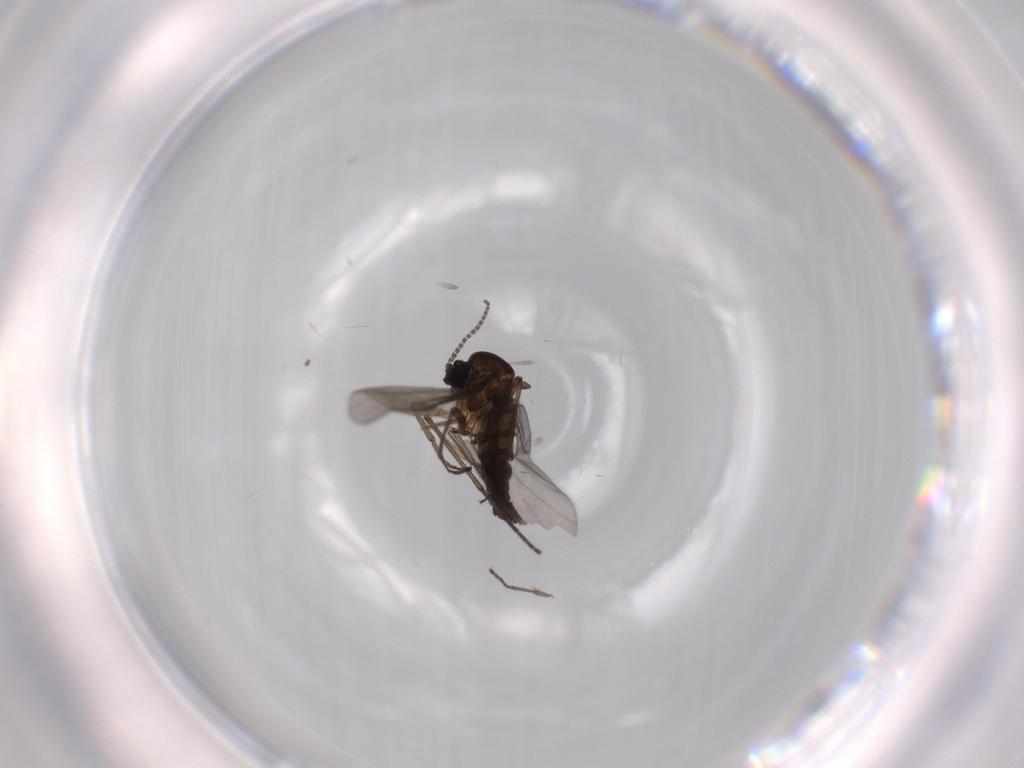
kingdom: Animalia
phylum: Arthropoda
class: Insecta
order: Diptera
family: Sciaridae
